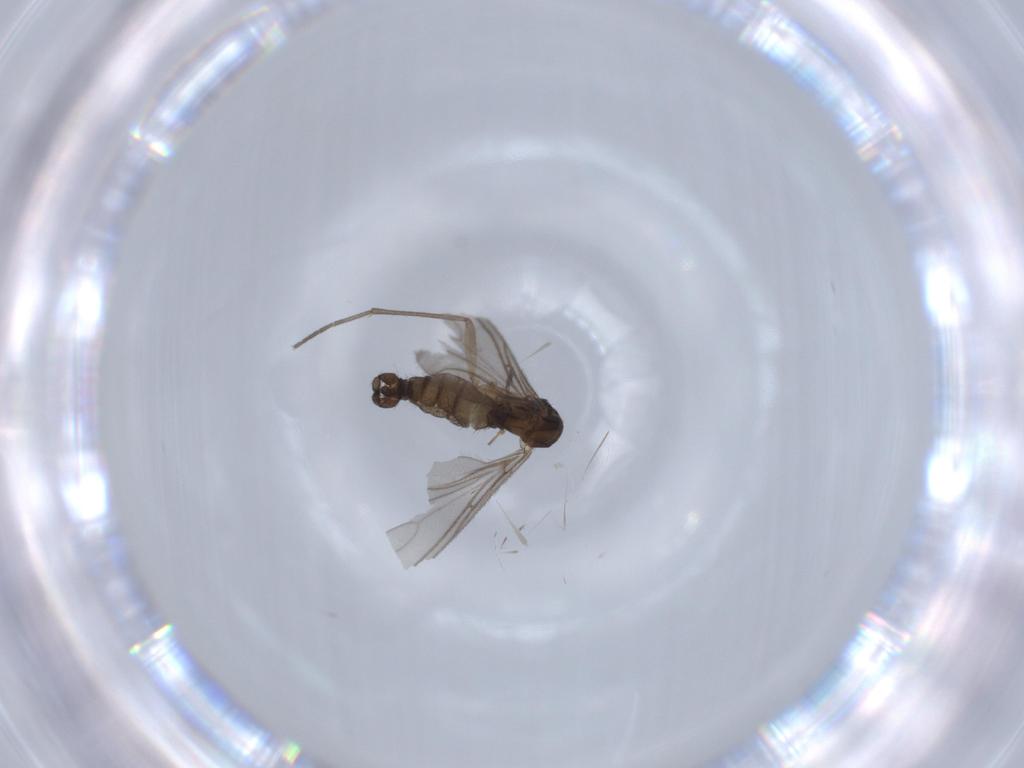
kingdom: Animalia
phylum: Arthropoda
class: Insecta
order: Diptera
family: Sciaridae
